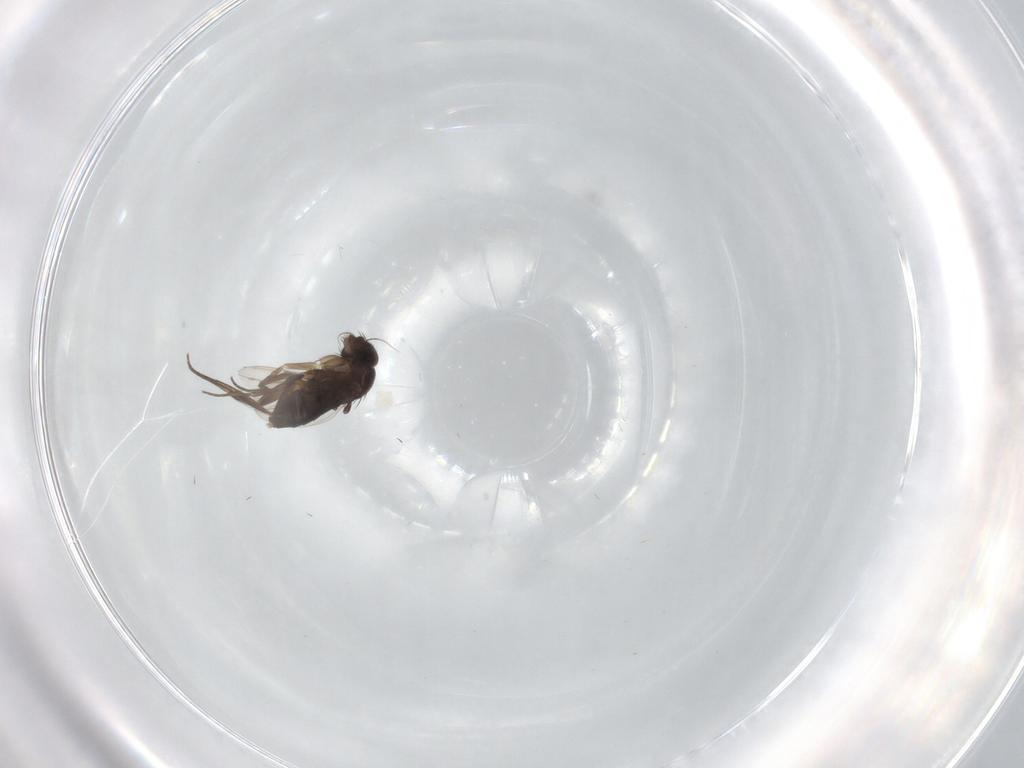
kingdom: Animalia
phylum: Arthropoda
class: Insecta
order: Diptera
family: Phoridae
